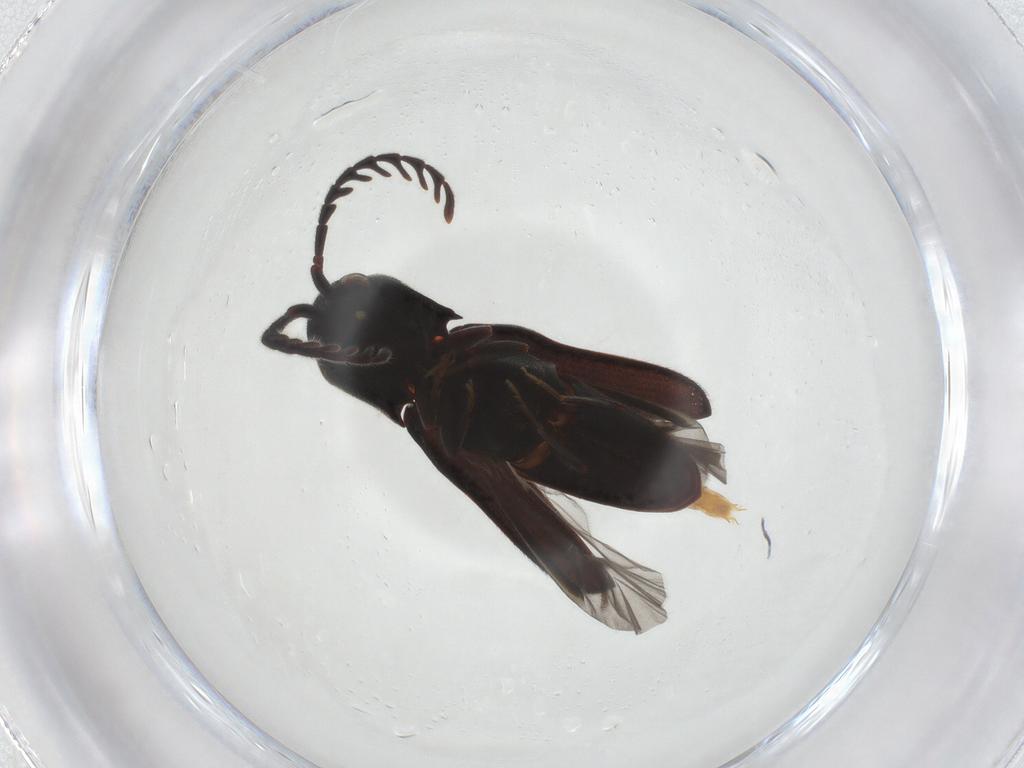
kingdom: Animalia
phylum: Arthropoda
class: Insecta
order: Coleoptera
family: Eucnemidae
